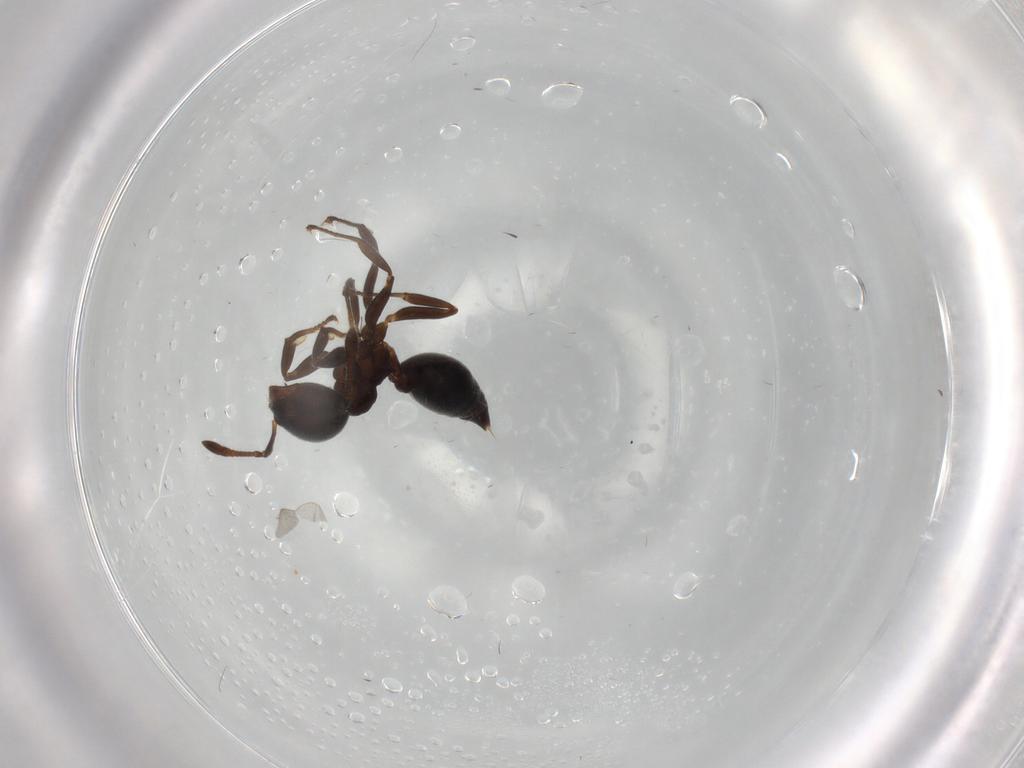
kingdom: Animalia
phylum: Arthropoda
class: Insecta
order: Hymenoptera
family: Formicidae
